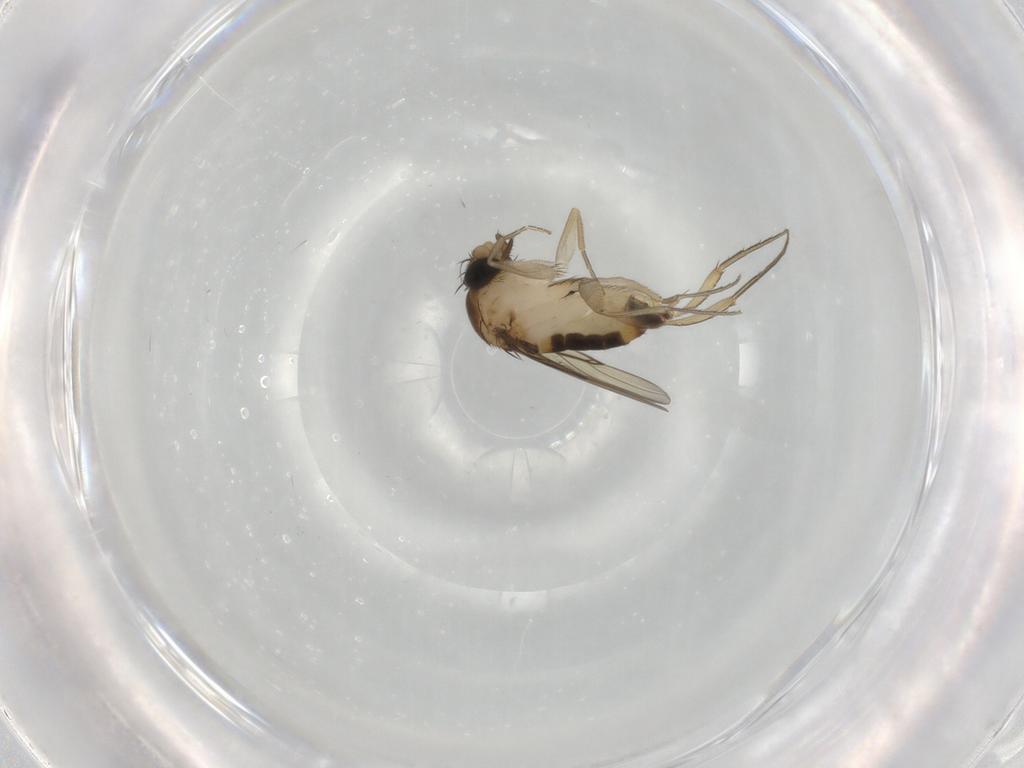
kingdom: Animalia
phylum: Arthropoda
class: Insecta
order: Diptera
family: Phoridae
